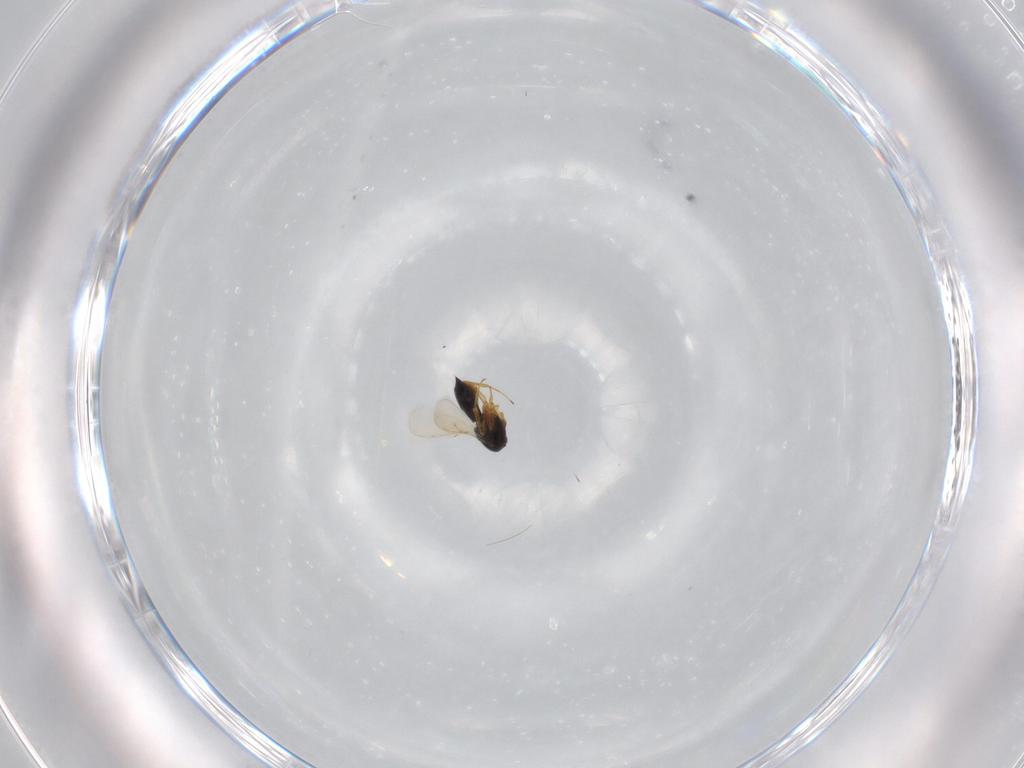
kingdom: Animalia
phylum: Arthropoda
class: Insecta
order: Hymenoptera
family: Scelionidae
